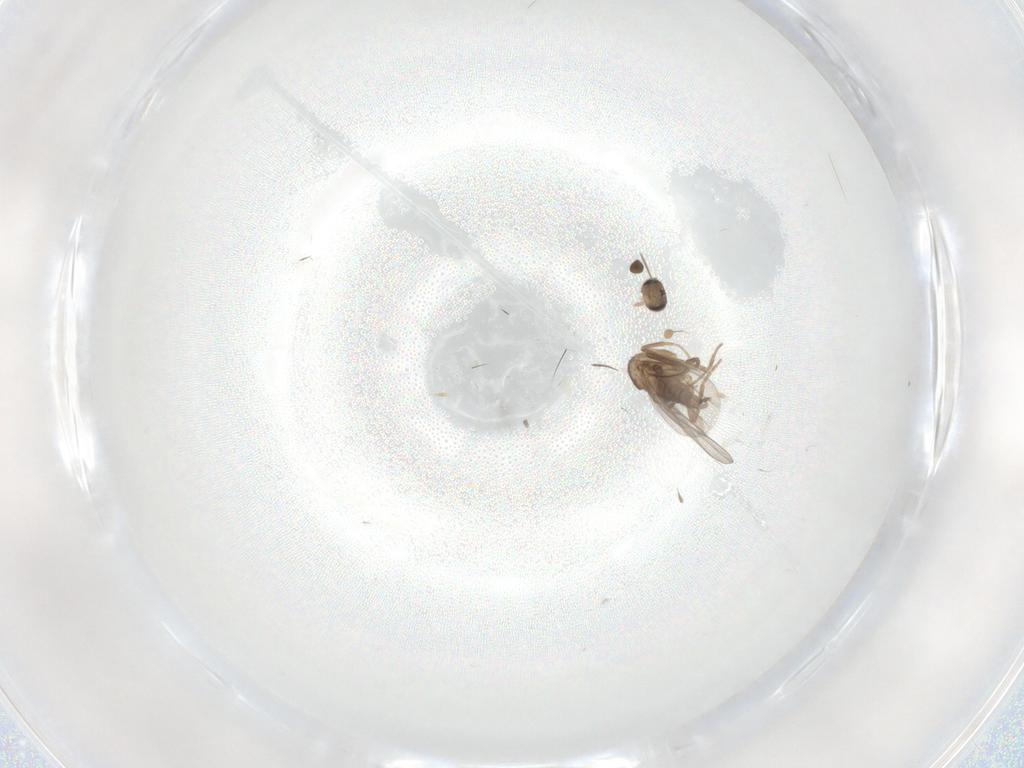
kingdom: Animalia
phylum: Arthropoda
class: Insecta
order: Diptera
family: Rhagionidae
